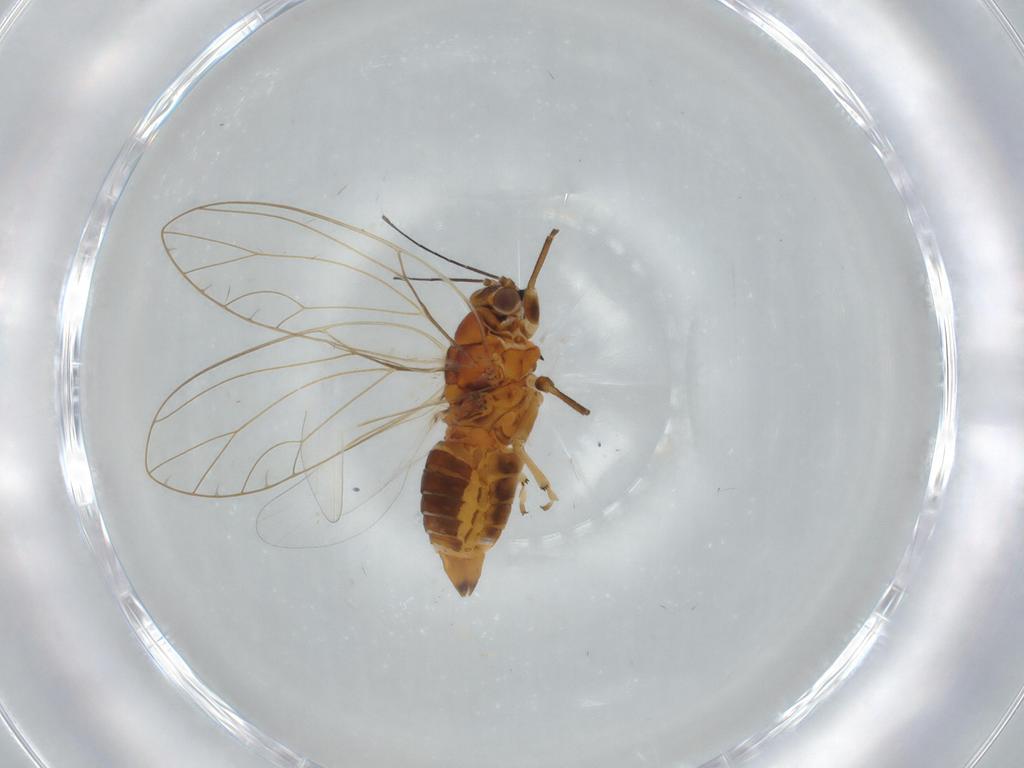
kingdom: Animalia
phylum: Arthropoda
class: Insecta
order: Hemiptera
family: Triozidae
